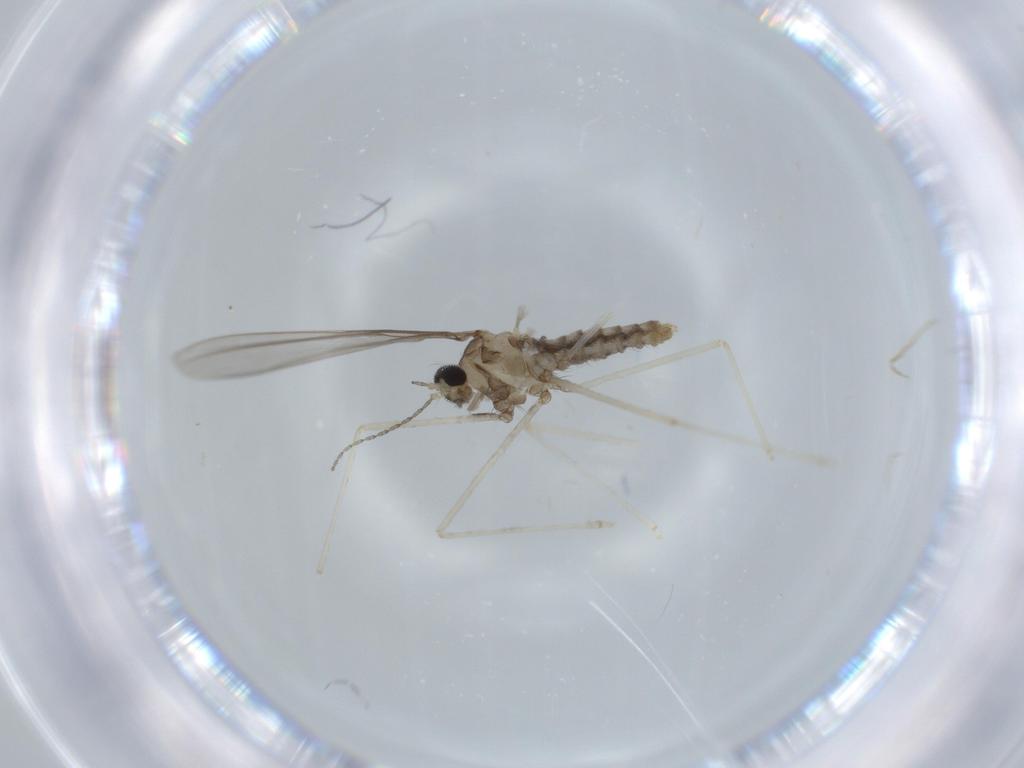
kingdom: Animalia
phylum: Arthropoda
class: Insecta
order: Diptera
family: Cecidomyiidae
